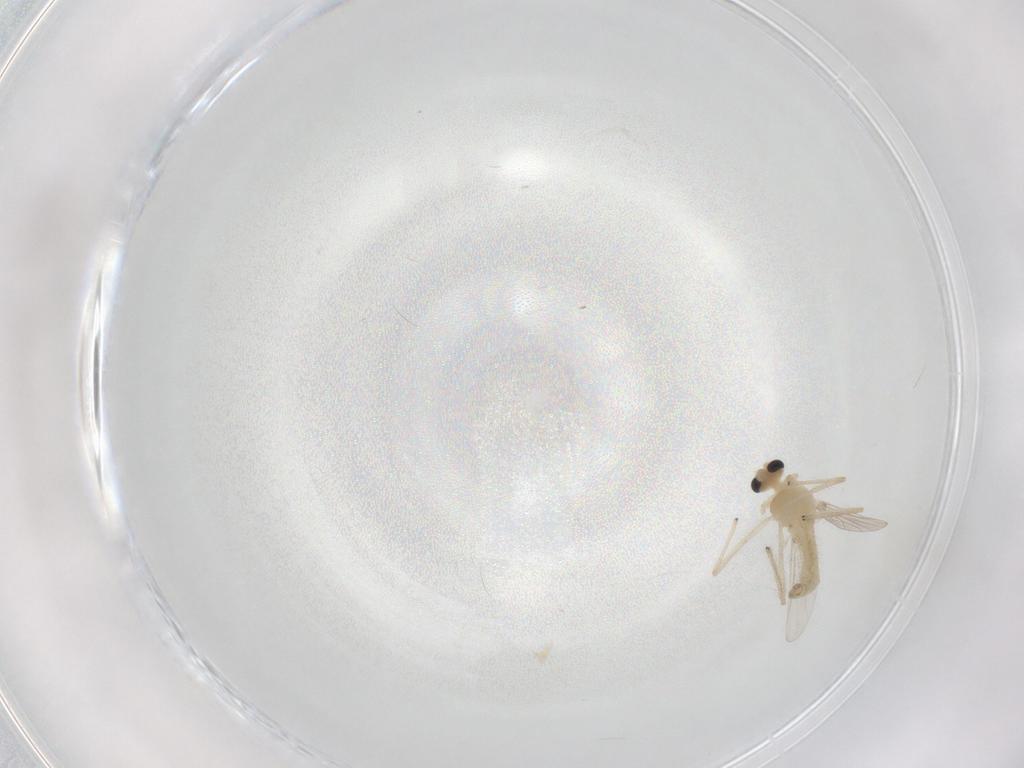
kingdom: Animalia
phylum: Arthropoda
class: Insecta
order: Diptera
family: Chironomidae
